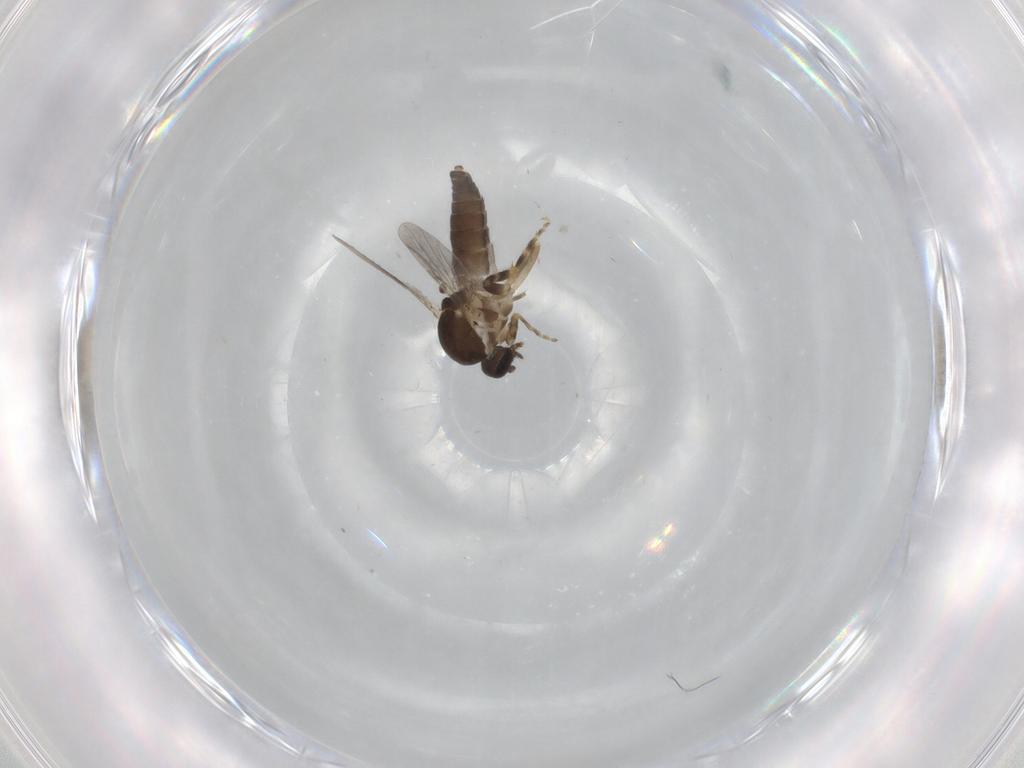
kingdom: Animalia
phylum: Arthropoda
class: Insecta
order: Diptera
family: Ceratopogonidae
